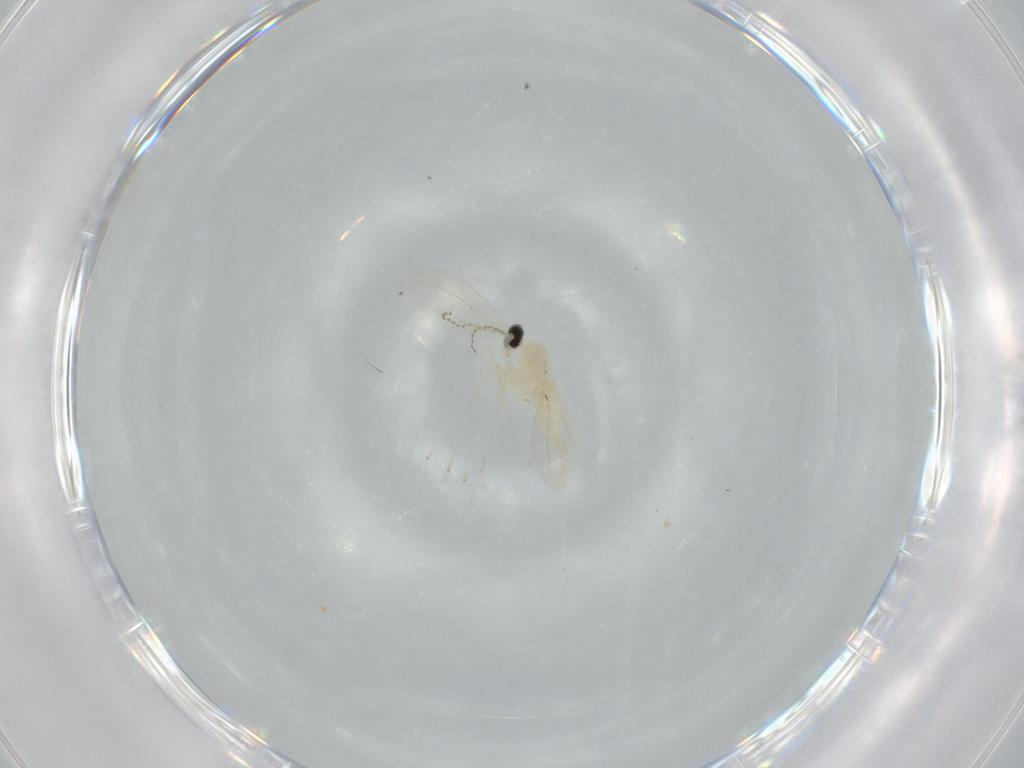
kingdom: Animalia
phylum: Arthropoda
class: Insecta
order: Diptera
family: Chironomidae
